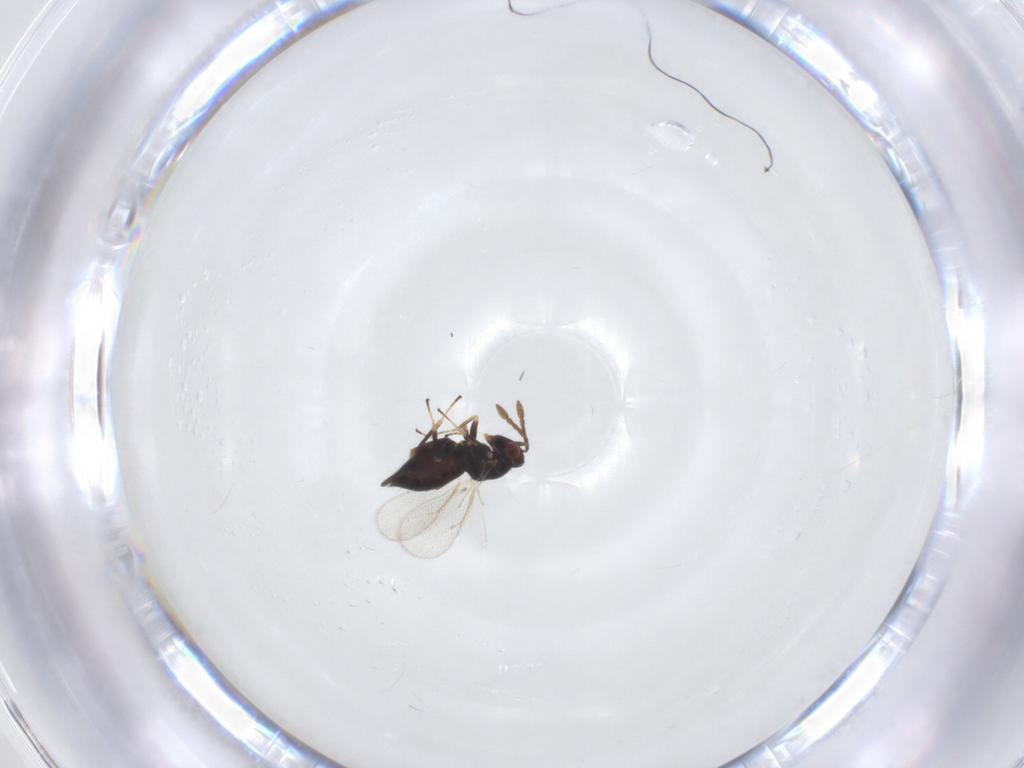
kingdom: Animalia
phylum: Arthropoda
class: Insecta
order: Hymenoptera
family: Eulophidae
